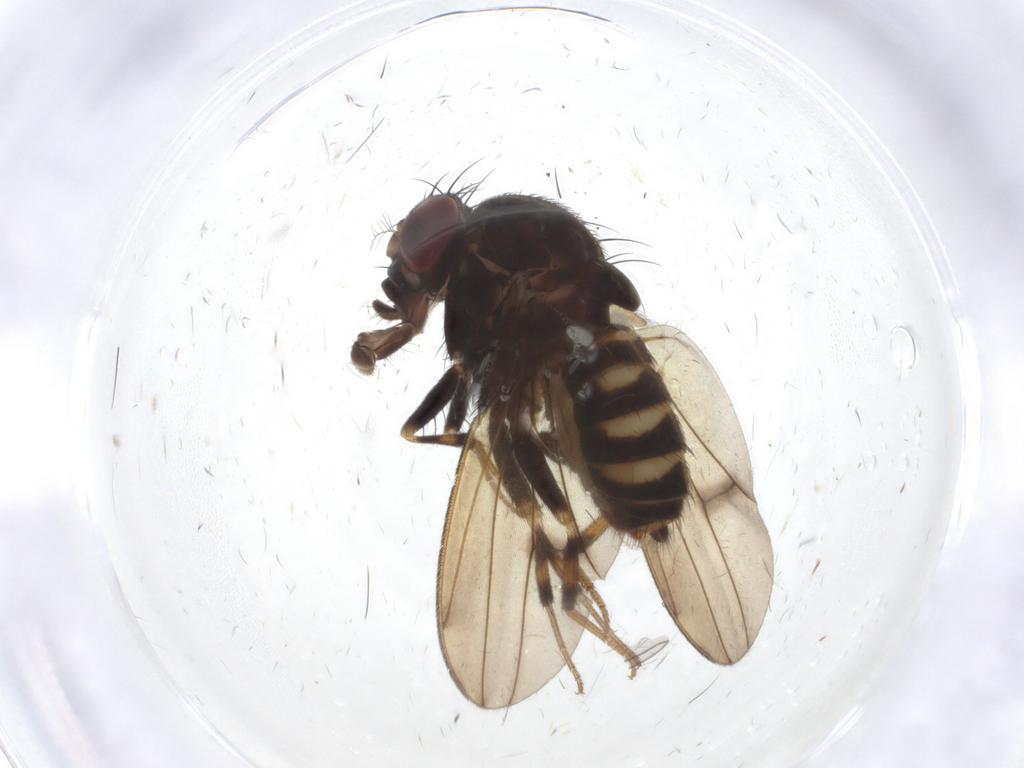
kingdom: Animalia
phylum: Arthropoda
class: Insecta
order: Diptera
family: Drosophilidae
